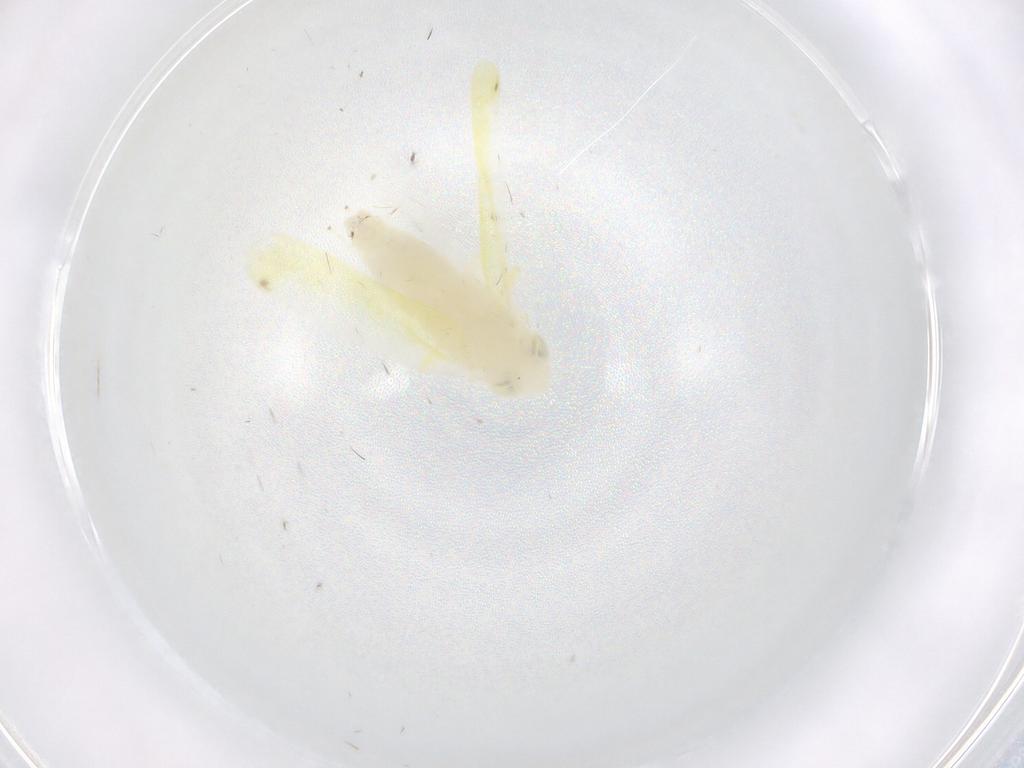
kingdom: Animalia
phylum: Arthropoda
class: Insecta
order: Hemiptera
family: Cicadellidae
